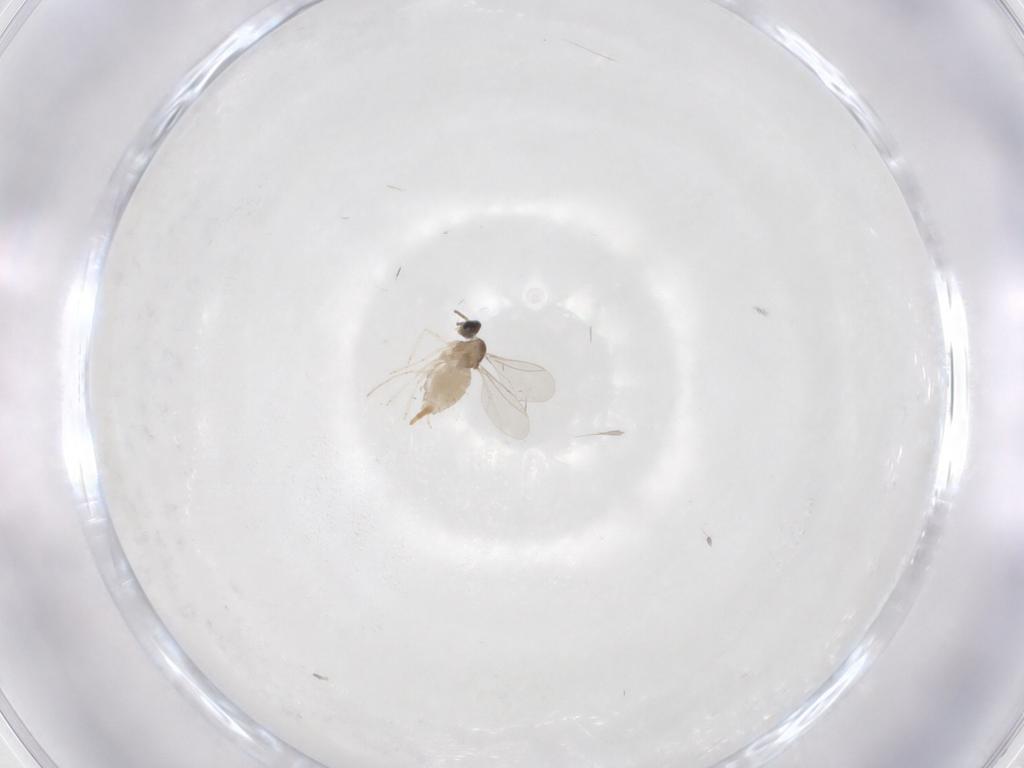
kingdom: Animalia
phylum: Arthropoda
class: Insecta
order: Diptera
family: Cecidomyiidae
